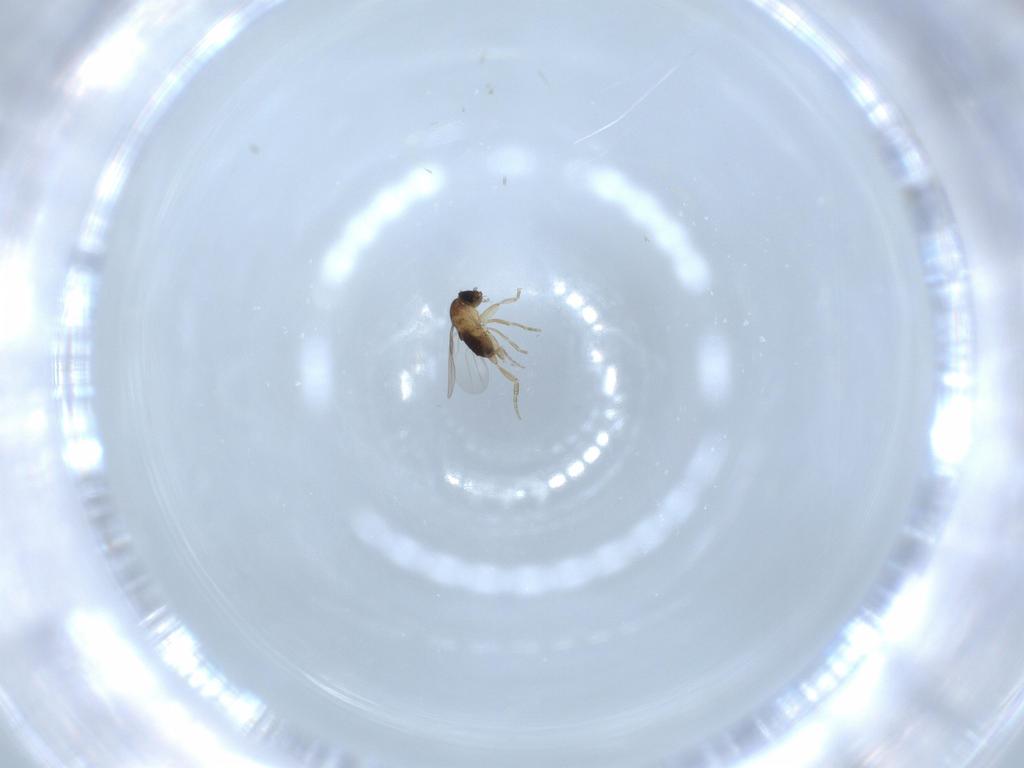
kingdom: Animalia
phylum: Arthropoda
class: Insecta
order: Diptera
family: Phoridae
